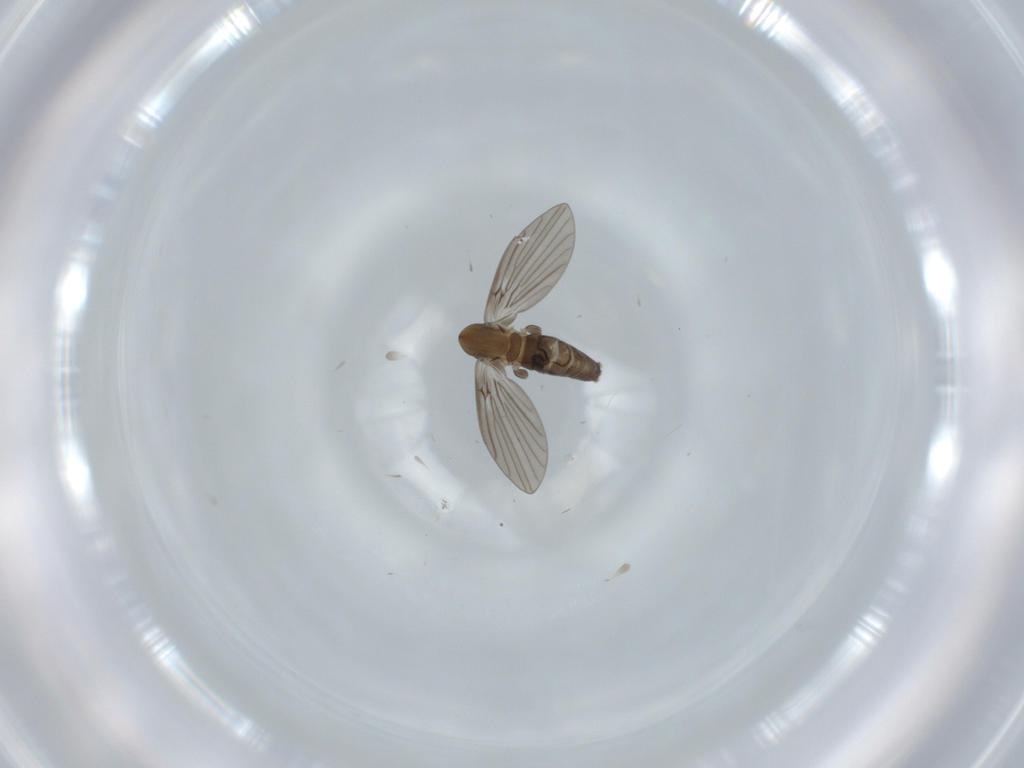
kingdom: Animalia
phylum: Arthropoda
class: Insecta
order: Diptera
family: Psychodidae
